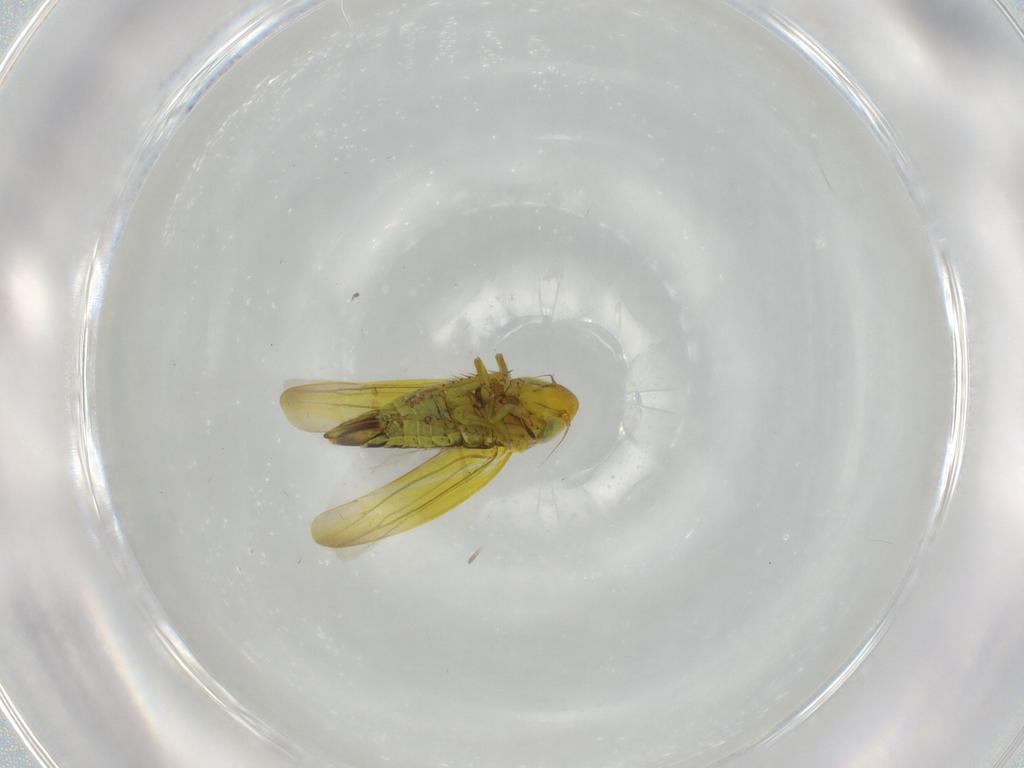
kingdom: Animalia
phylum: Arthropoda
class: Insecta
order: Hemiptera
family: Cicadellidae
